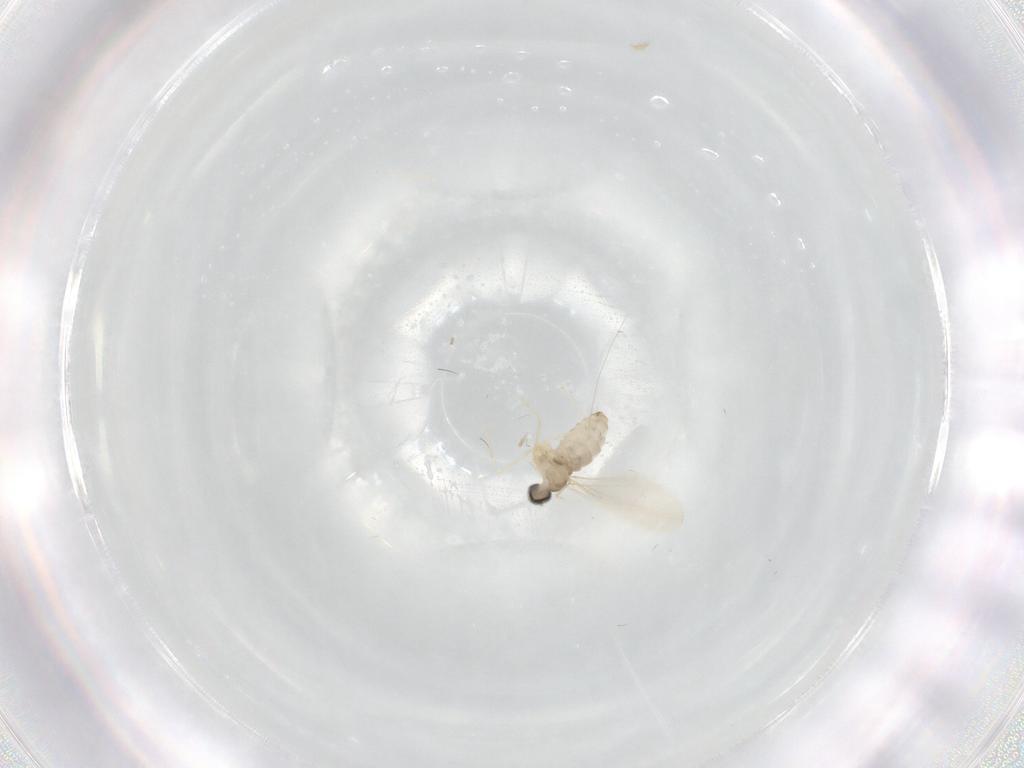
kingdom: Animalia
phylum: Arthropoda
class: Insecta
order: Diptera
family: Cecidomyiidae
